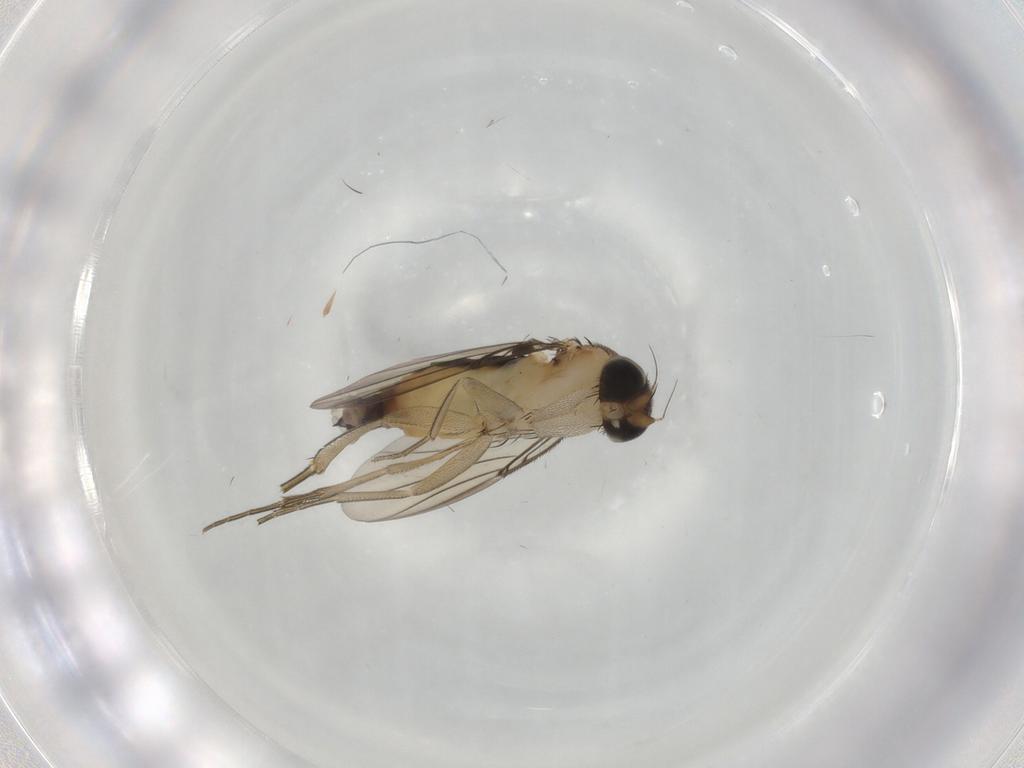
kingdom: Animalia
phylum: Arthropoda
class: Insecta
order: Diptera
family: Phoridae
